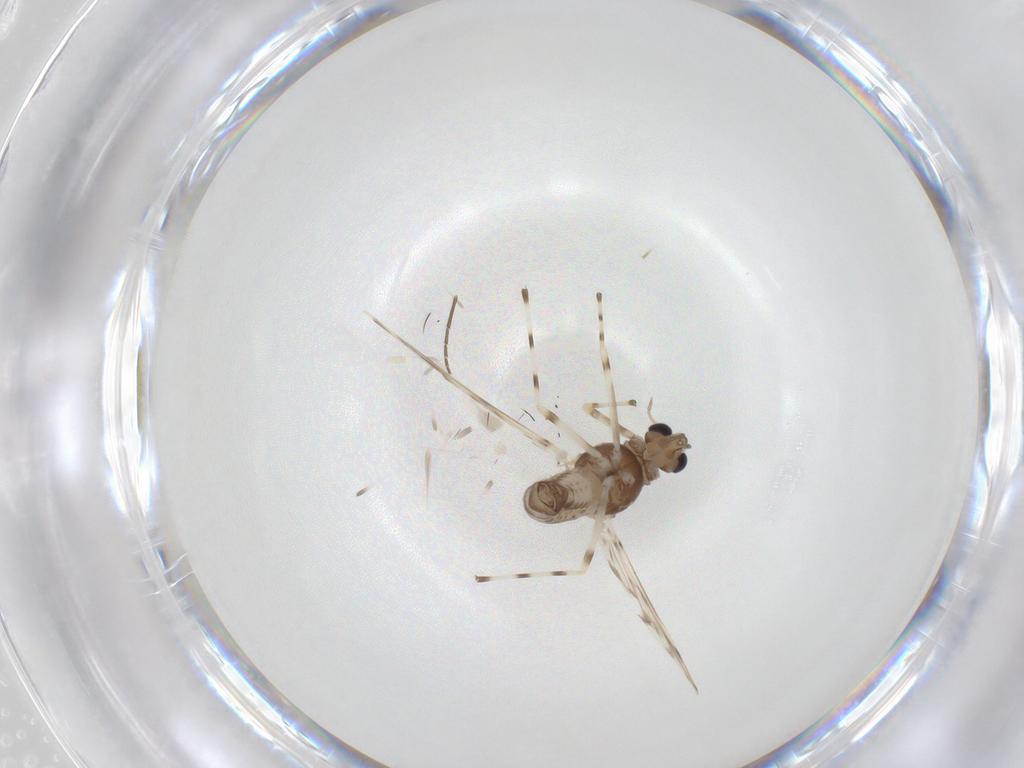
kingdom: Animalia
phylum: Arthropoda
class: Insecta
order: Diptera
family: Chironomidae
